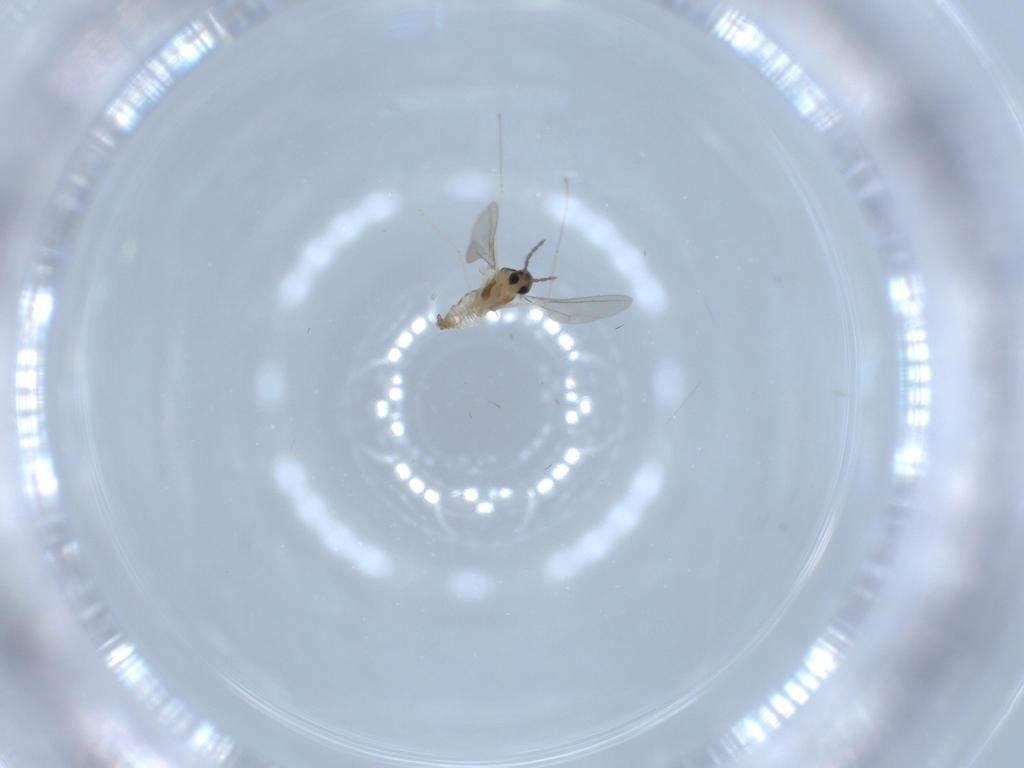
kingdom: Animalia
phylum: Arthropoda
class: Insecta
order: Diptera
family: Cecidomyiidae
